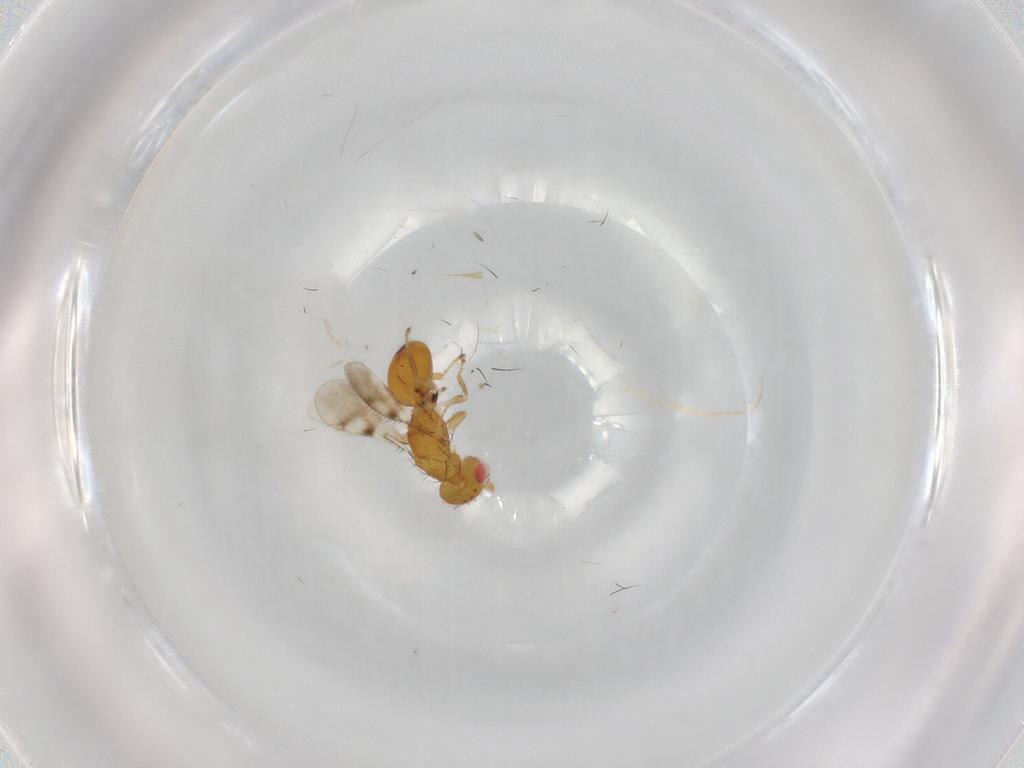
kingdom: Animalia
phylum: Arthropoda
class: Insecta
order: Hymenoptera
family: Eulophidae
